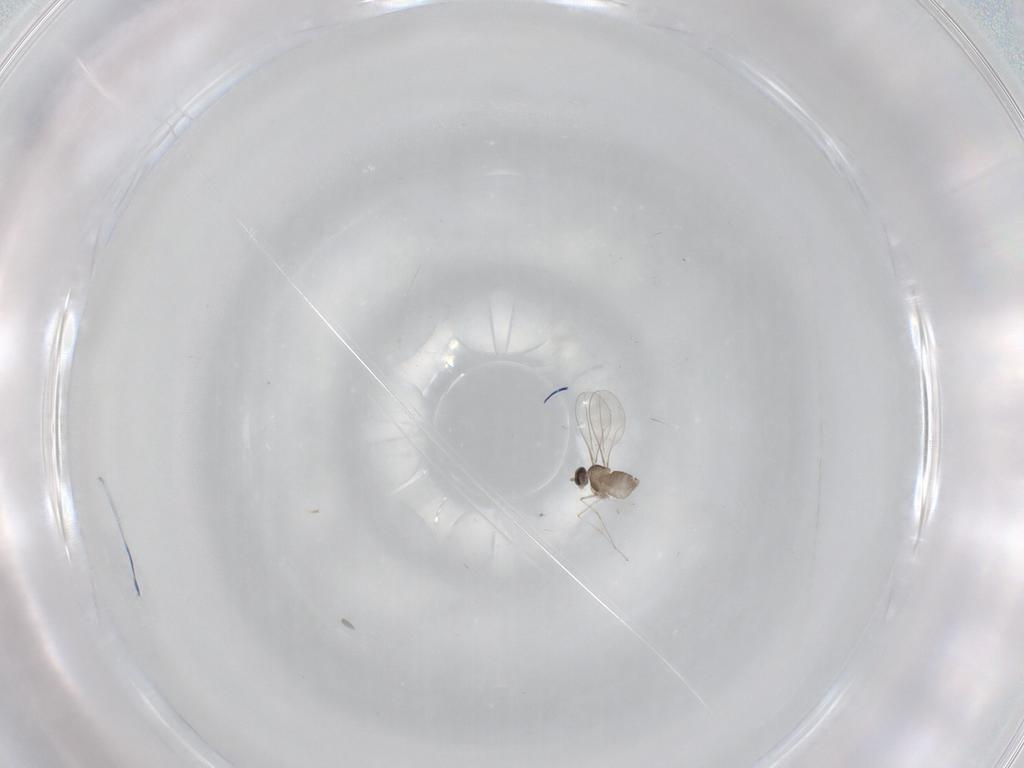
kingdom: Animalia
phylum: Arthropoda
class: Insecta
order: Diptera
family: Cecidomyiidae
